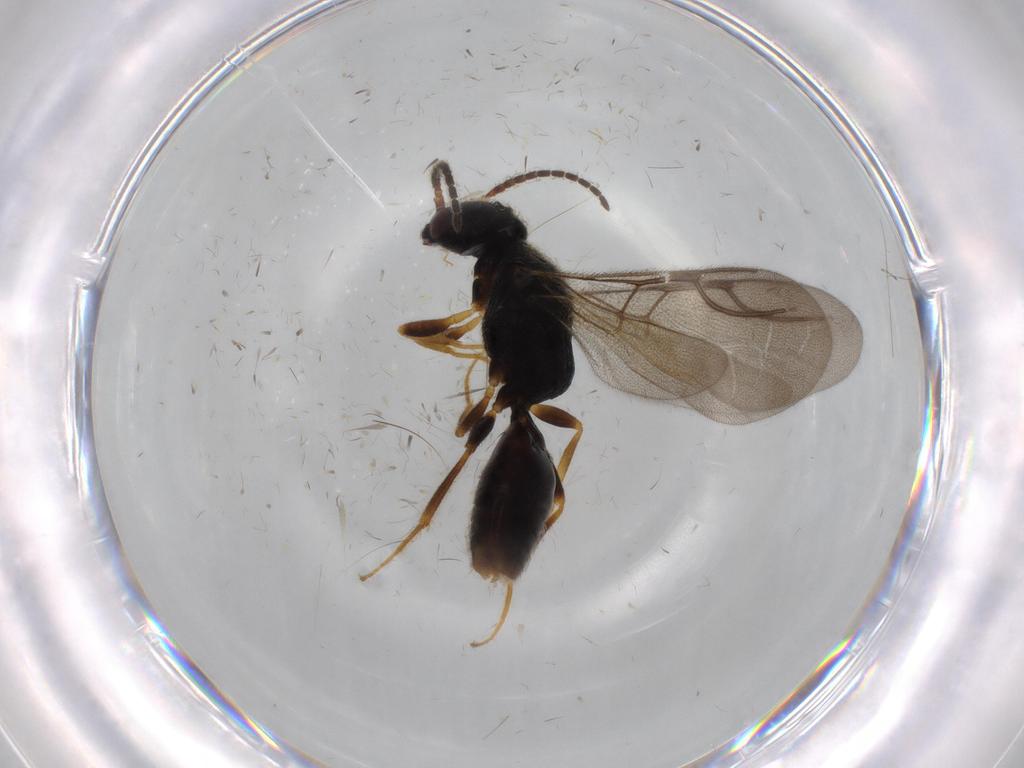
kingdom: Animalia
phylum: Arthropoda
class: Insecta
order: Hymenoptera
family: Bethylidae
